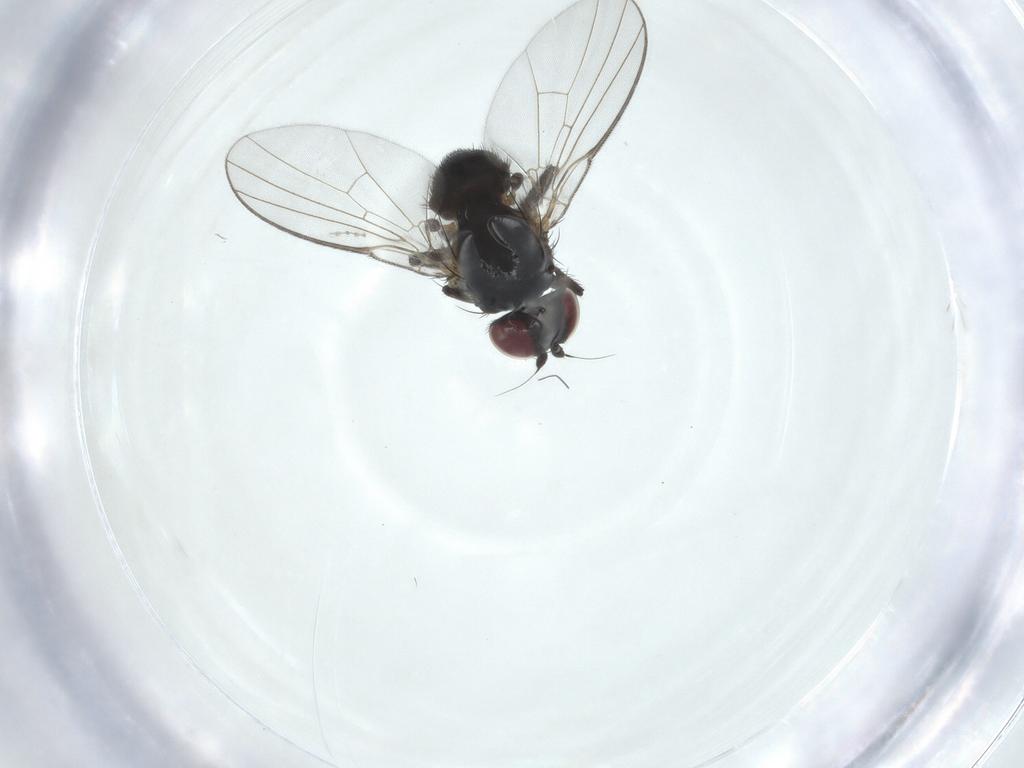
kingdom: Animalia
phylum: Arthropoda
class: Insecta
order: Diptera
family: Agromyzidae
